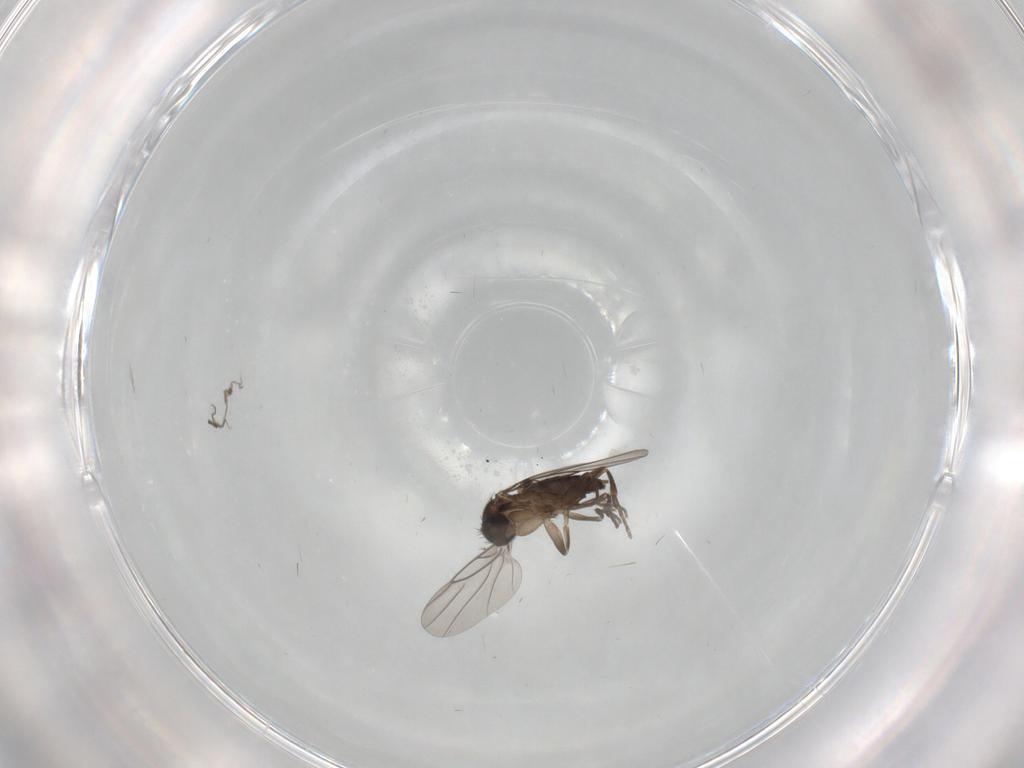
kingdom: Animalia
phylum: Arthropoda
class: Insecta
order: Diptera
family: Phoridae
